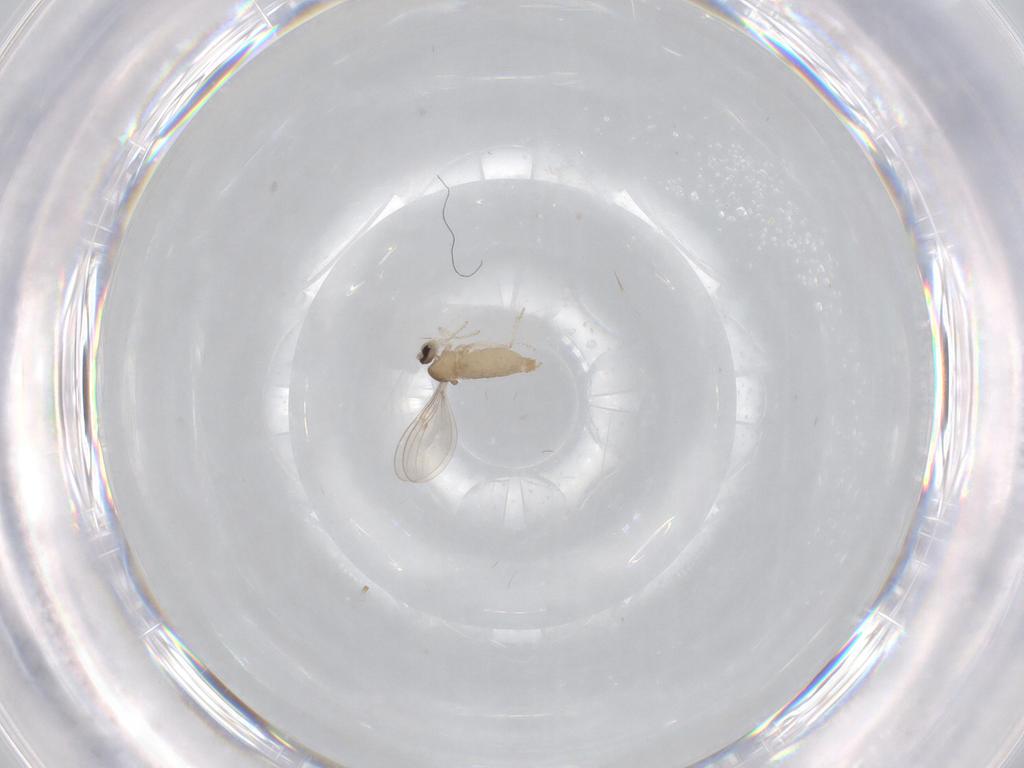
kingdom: Animalia
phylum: Arthropoda
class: Insecta
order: Diptera
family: Cecidomyiidae
